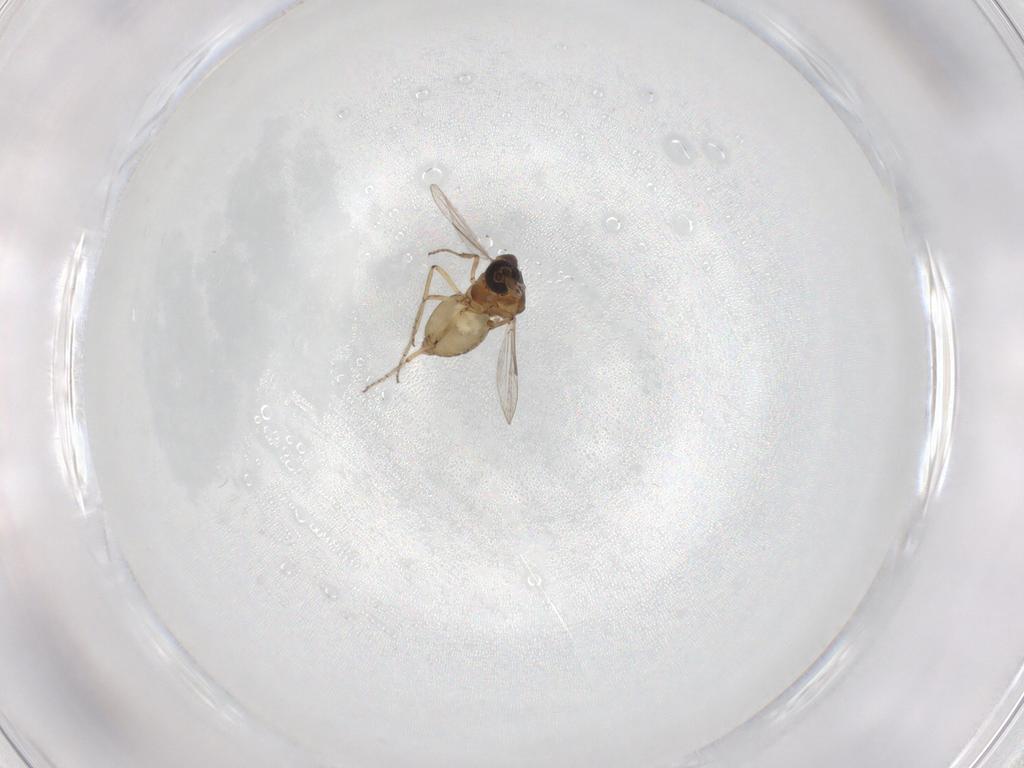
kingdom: Animalia
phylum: Arthropoda
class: Insecta
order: Diptera
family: Ceratopogonidae
